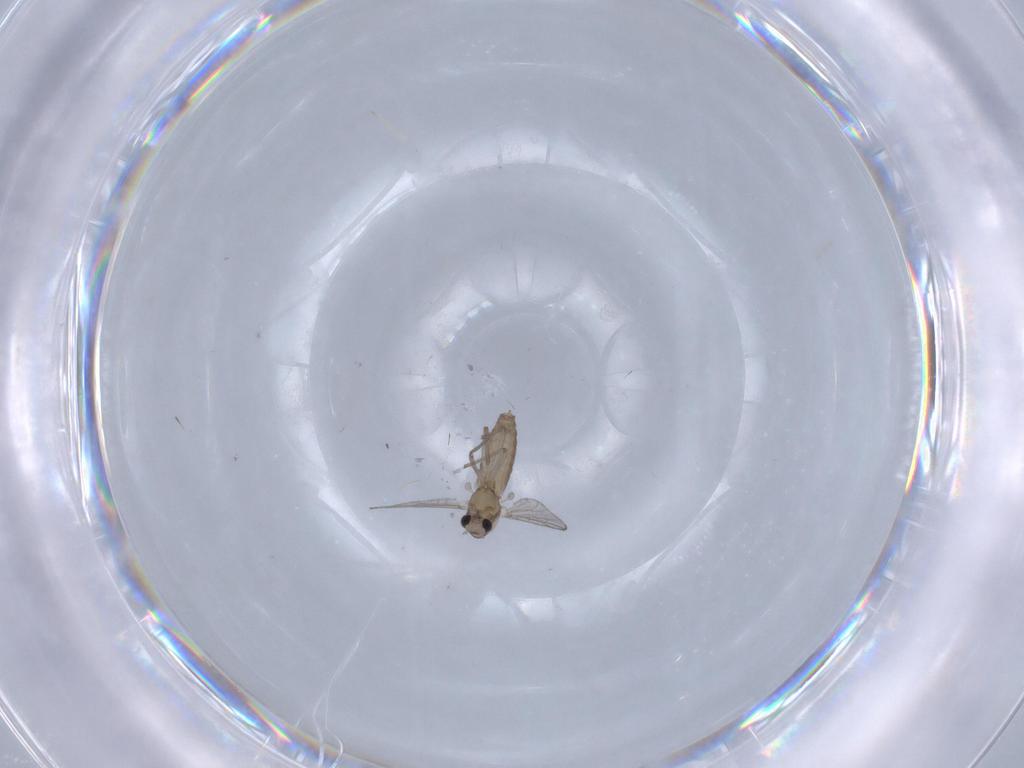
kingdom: Animalia
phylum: Arthropoda
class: Insecta
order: Diptera
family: Chironomidae
